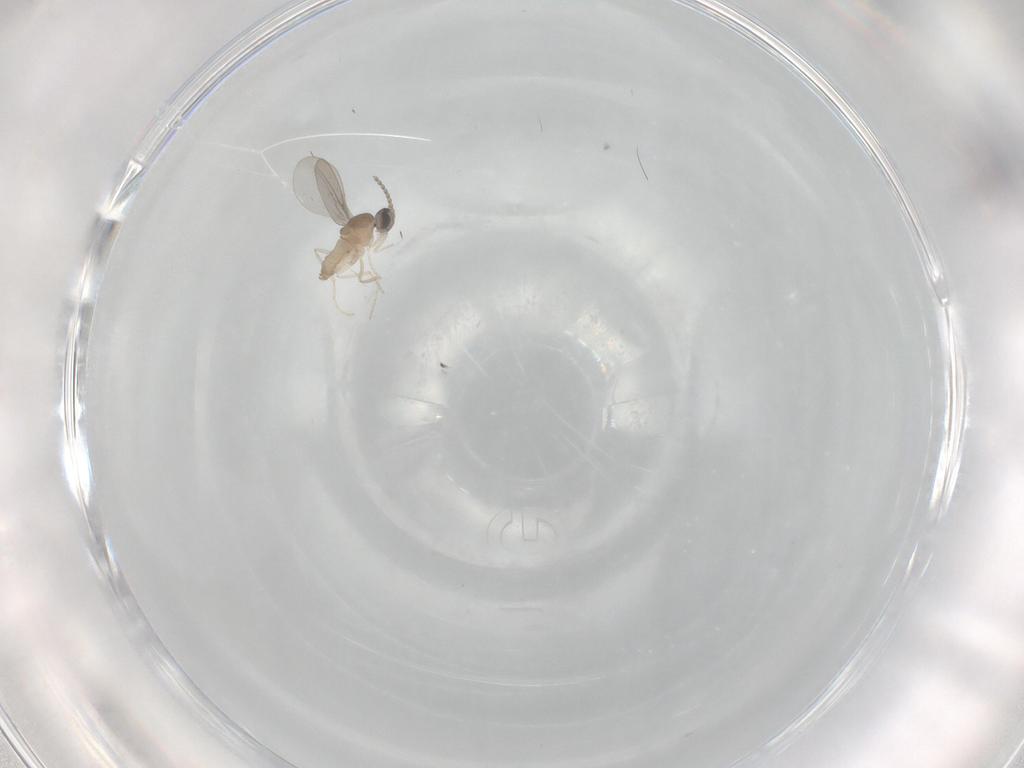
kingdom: Animalia
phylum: Arthropoda
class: Insecta
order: Diptera
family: Cecidomyiidae
